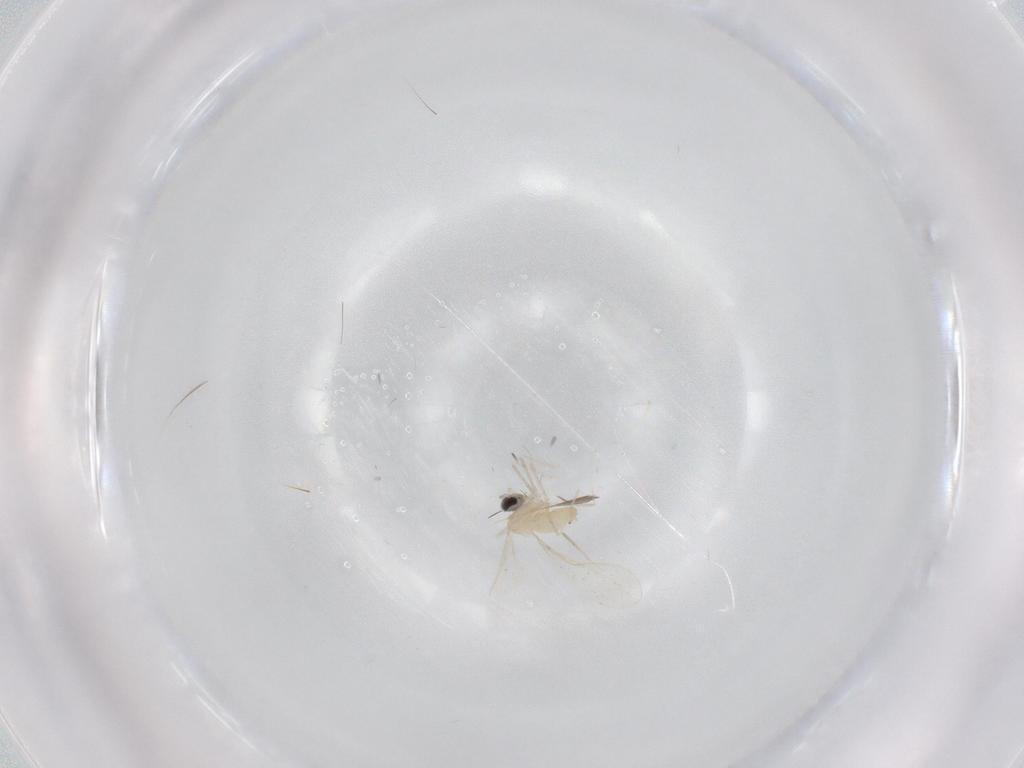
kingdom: Animalia
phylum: Arthropoda
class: Insecta
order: Diptera
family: Cecidomyiidae
